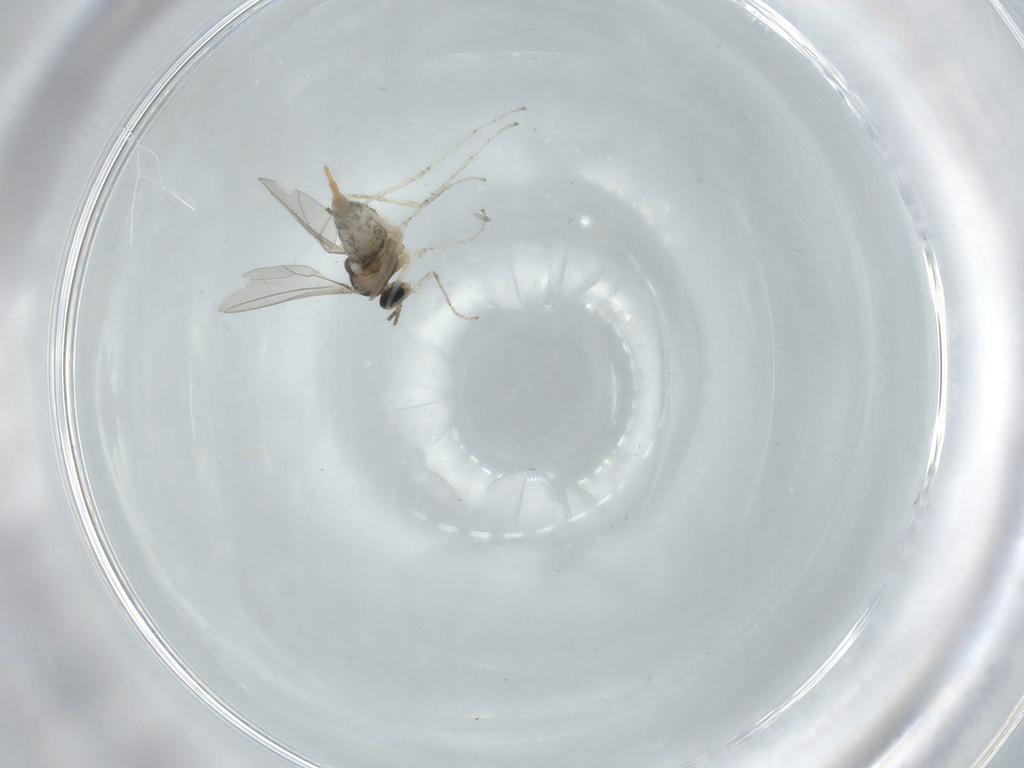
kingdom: Animalia
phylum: Arthropoda
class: Insecta
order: Diptera
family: Cecidomyiidae
